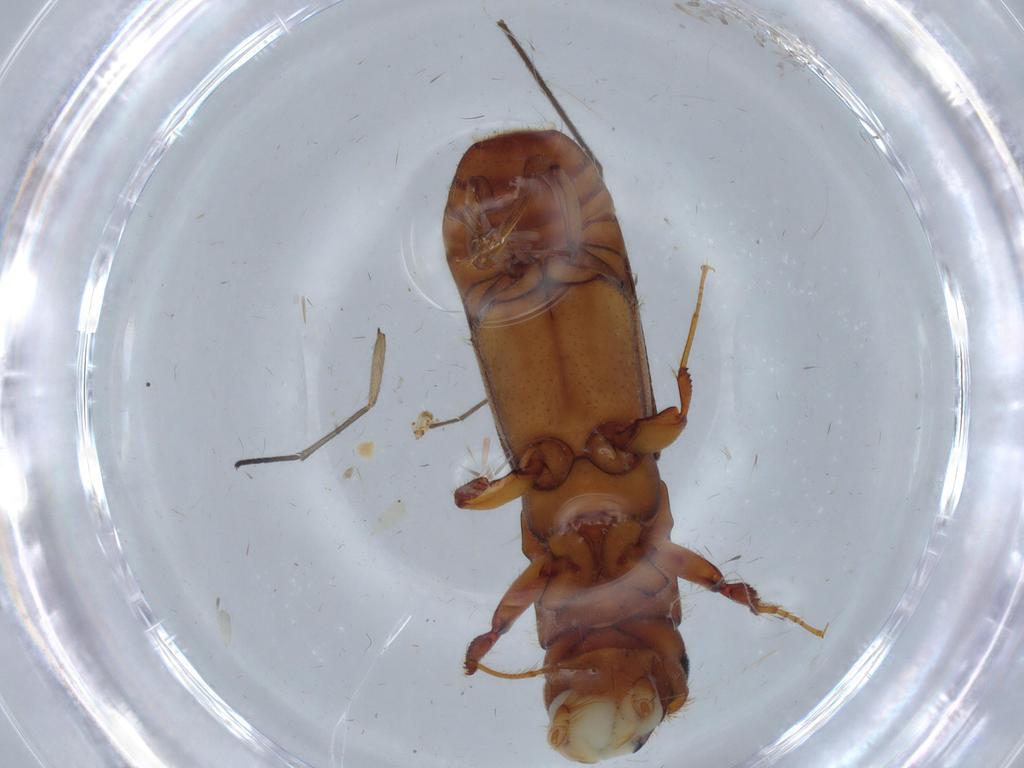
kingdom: Animalia
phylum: Arthropoda
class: Insecta
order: Coleoptera
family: Curculionidae
